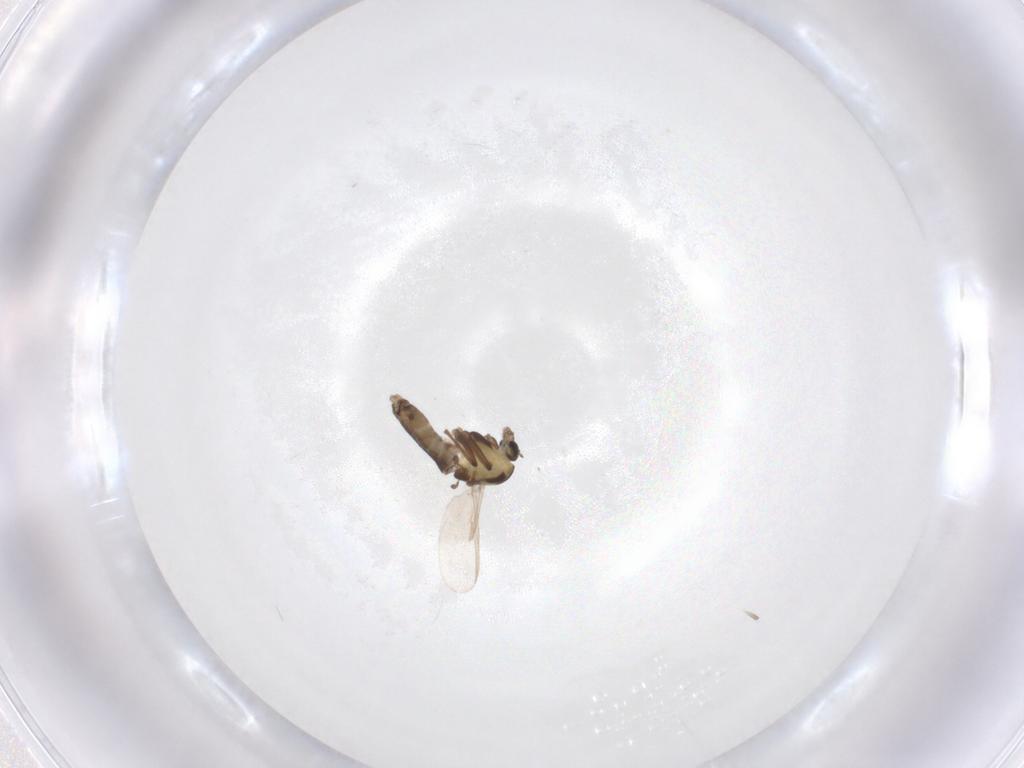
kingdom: Animalia
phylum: Arthropoda
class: Insecta
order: Diptera
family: Chironomidae
